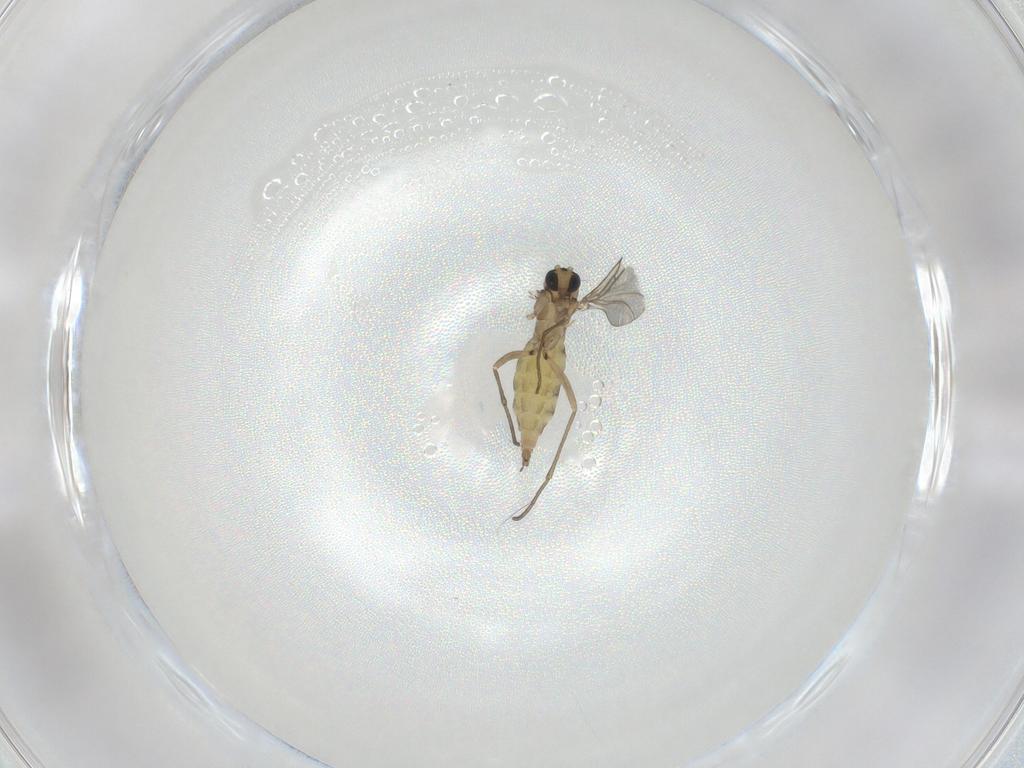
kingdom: Animalia
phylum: Arthropoda
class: Insecta
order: Diptera
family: Sciaridae
